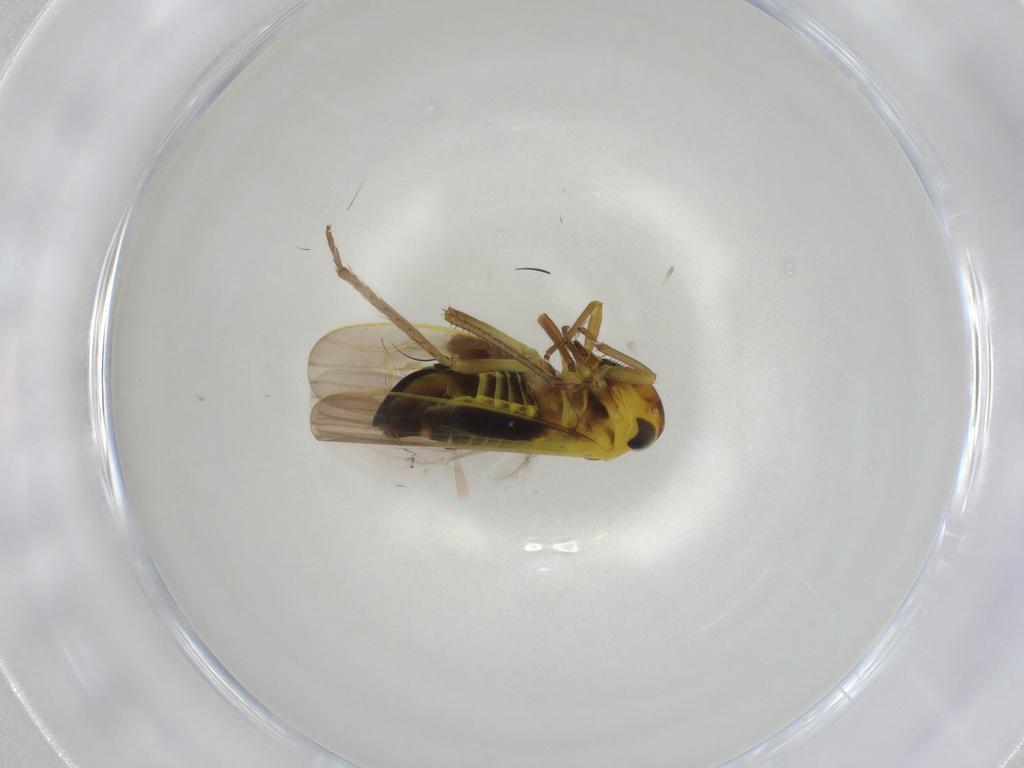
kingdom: Animalia
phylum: Arthropoda
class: Insecta
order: Hemiptera
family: Cicadellidae
